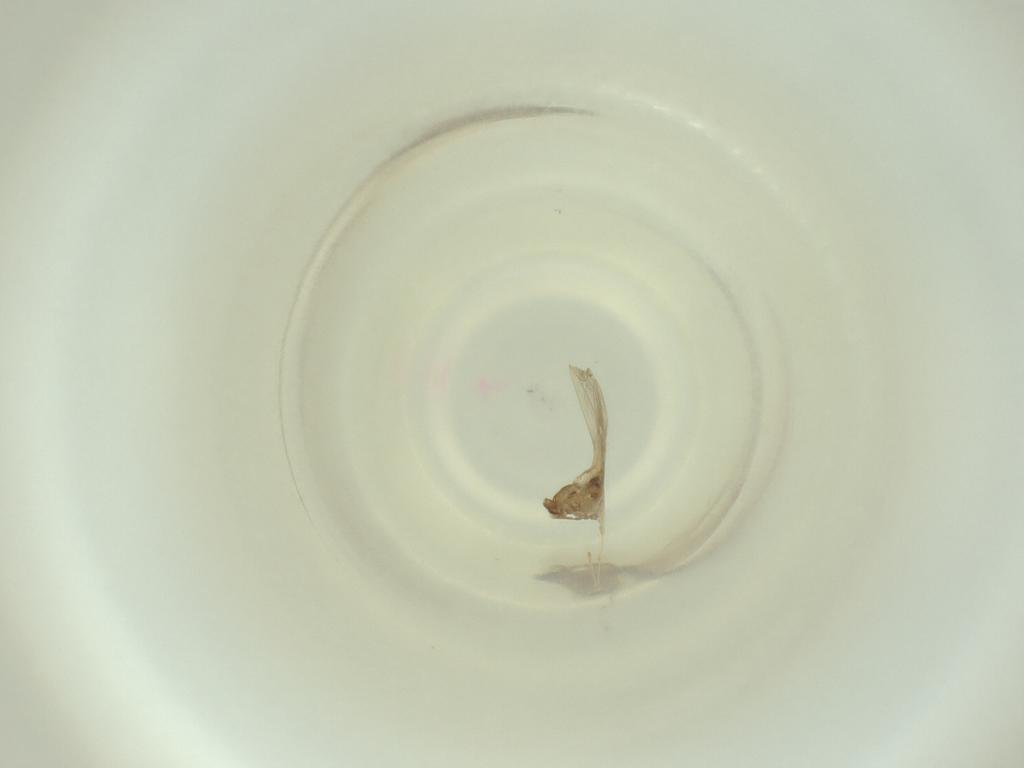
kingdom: Animalia
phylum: Arthropoda
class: Insecta
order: Diptera
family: Cecidomyiidae
